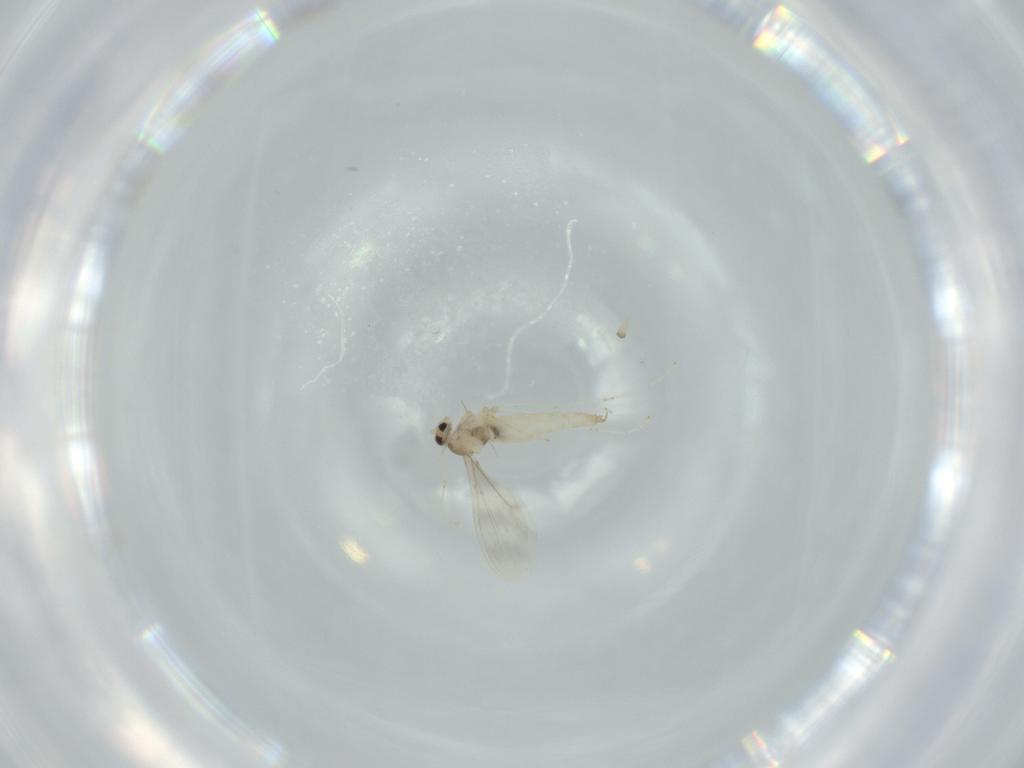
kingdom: Animalia
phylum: Arthropoda
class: Insecta
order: Diptera
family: Cecidomyiidae
